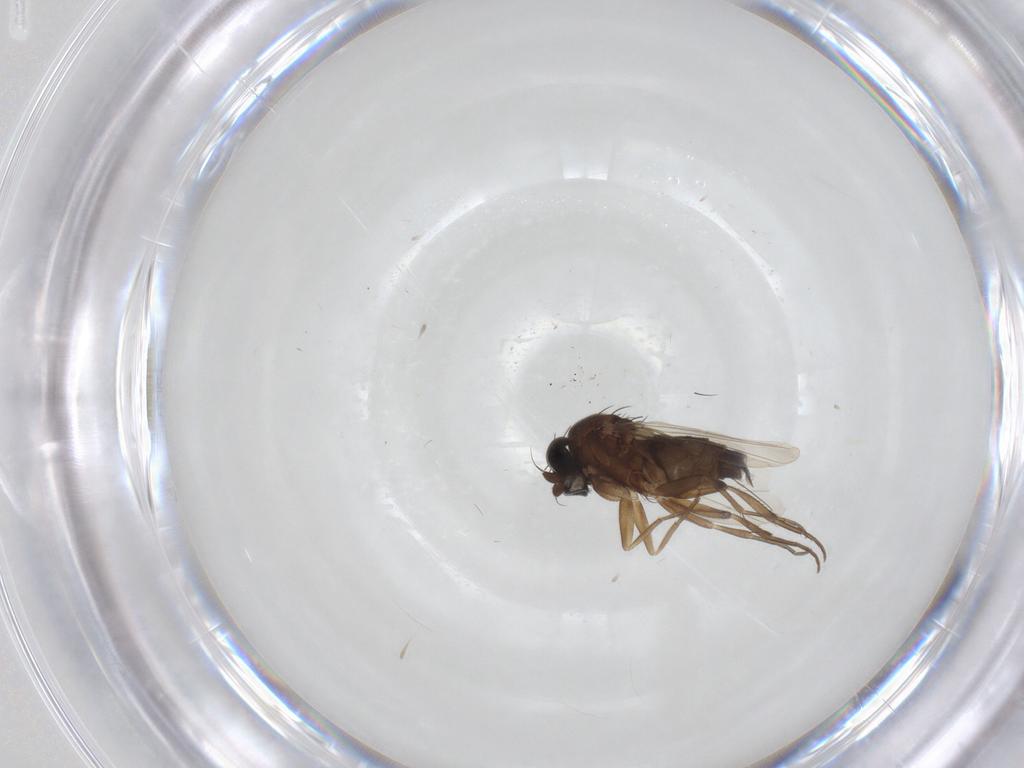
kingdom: Animalia
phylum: Arthropoda
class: Insecta
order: Diptera
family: Phoridae
